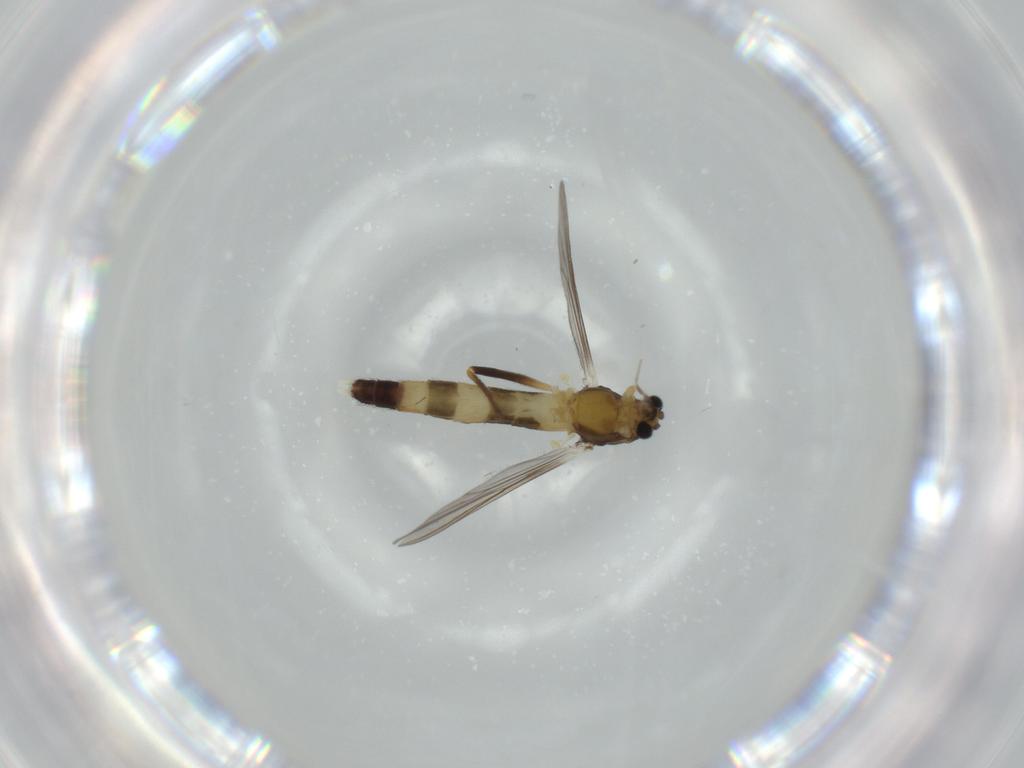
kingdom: Animalia
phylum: Arthropoda
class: Insecta
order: Diptera
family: Chironomidae
